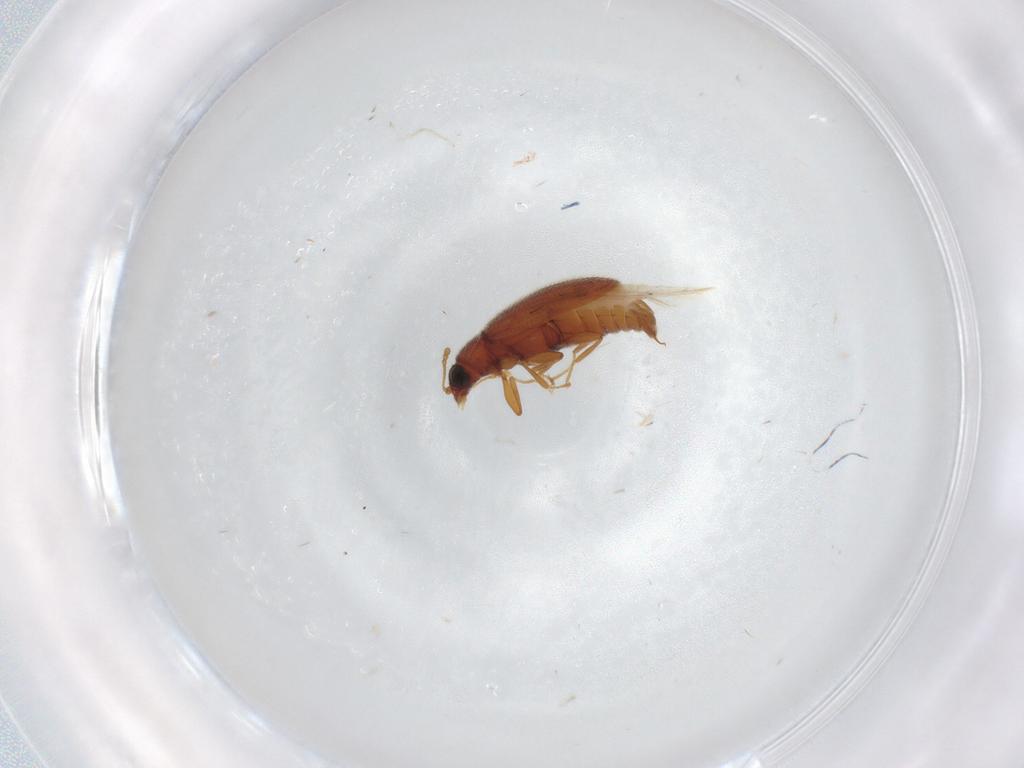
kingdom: Animalia
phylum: Arthropoda
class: Insecta
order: Coleoptera
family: Latridiidae
